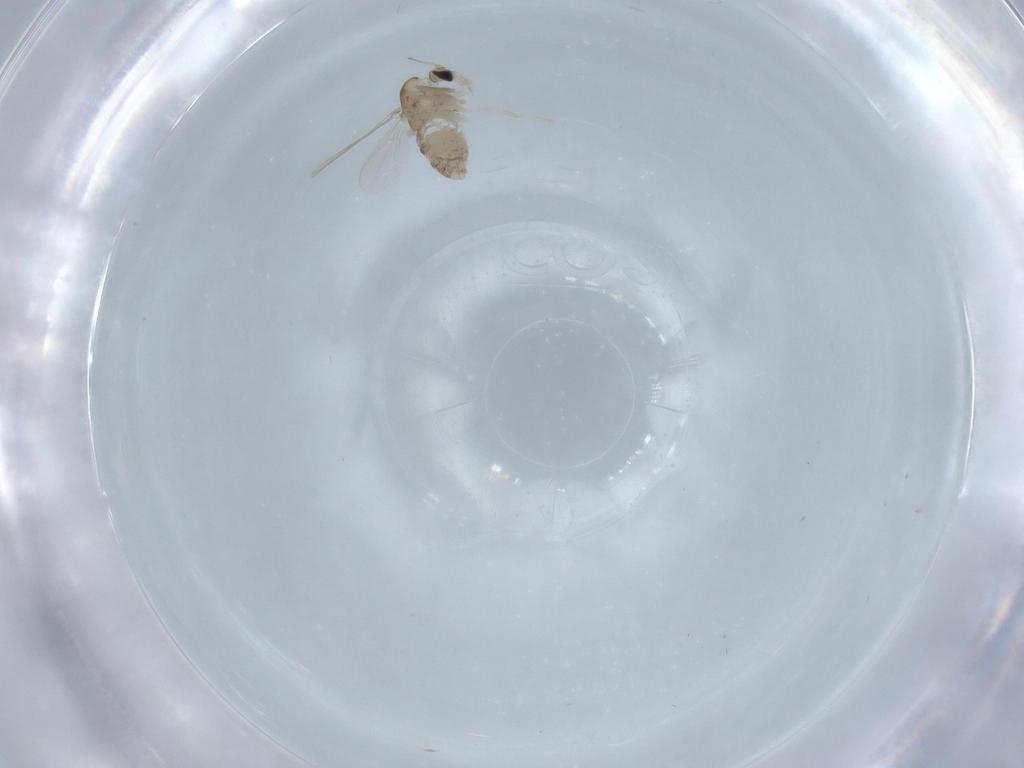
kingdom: Animalia
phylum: Arthropoda
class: Insecta
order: Diptera
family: Chironomidae
